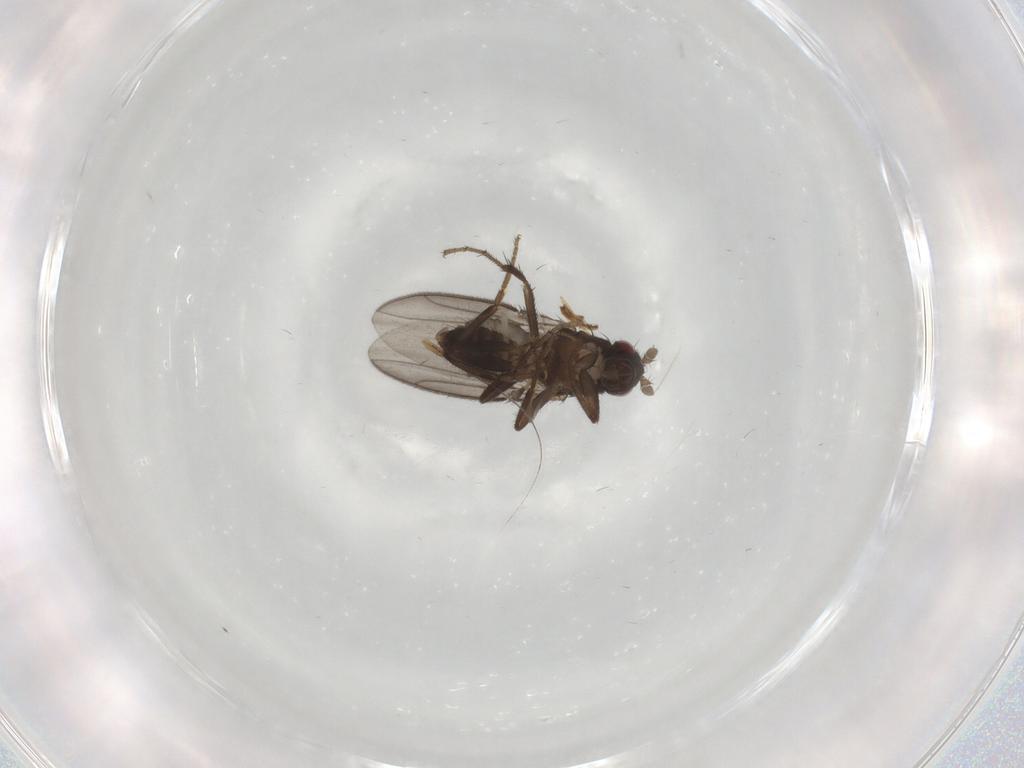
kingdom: Animalia
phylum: Arthropoda
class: Insecta
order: Diptera
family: Sphaeroceridae
